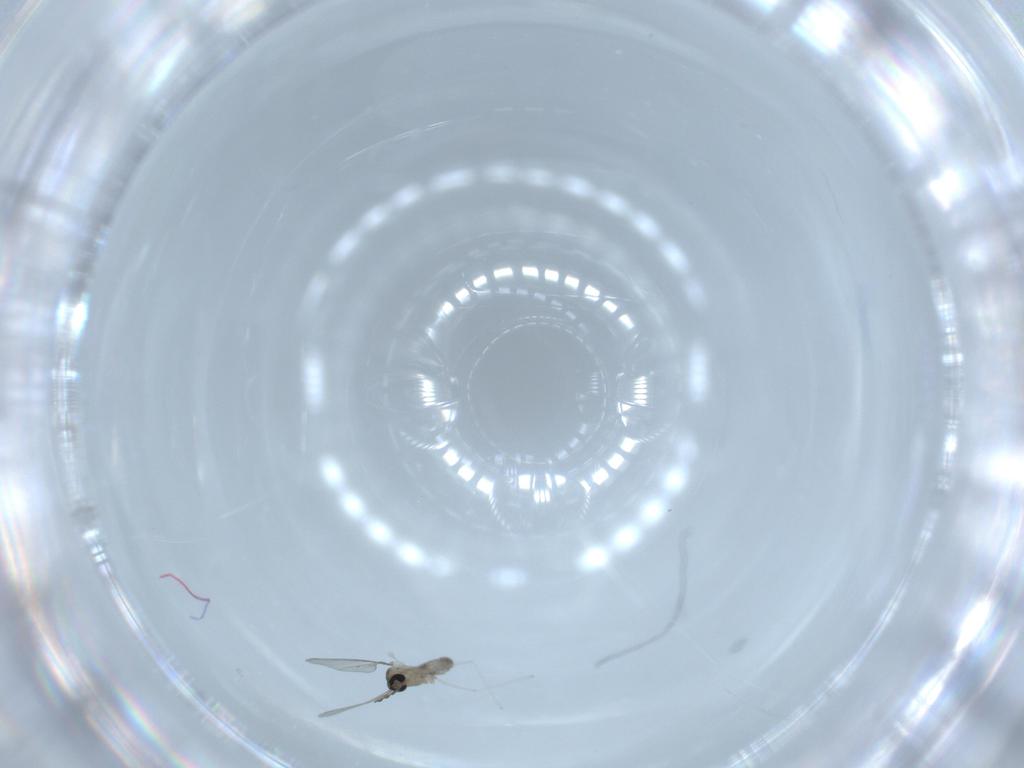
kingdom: Animalia
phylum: Arthropoda
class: Insecta
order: Diptera
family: Cecidomyiidae
